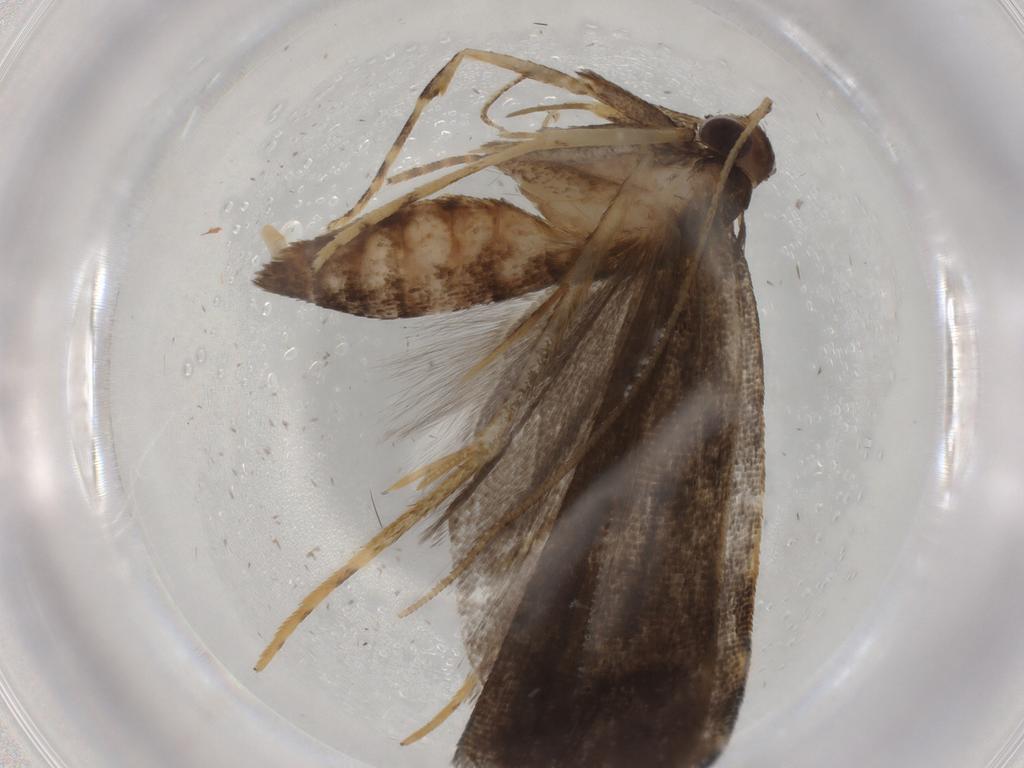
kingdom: Animalia
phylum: Arthropoda
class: Insecta
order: Lepidoptera
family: Cosmopterigidae
